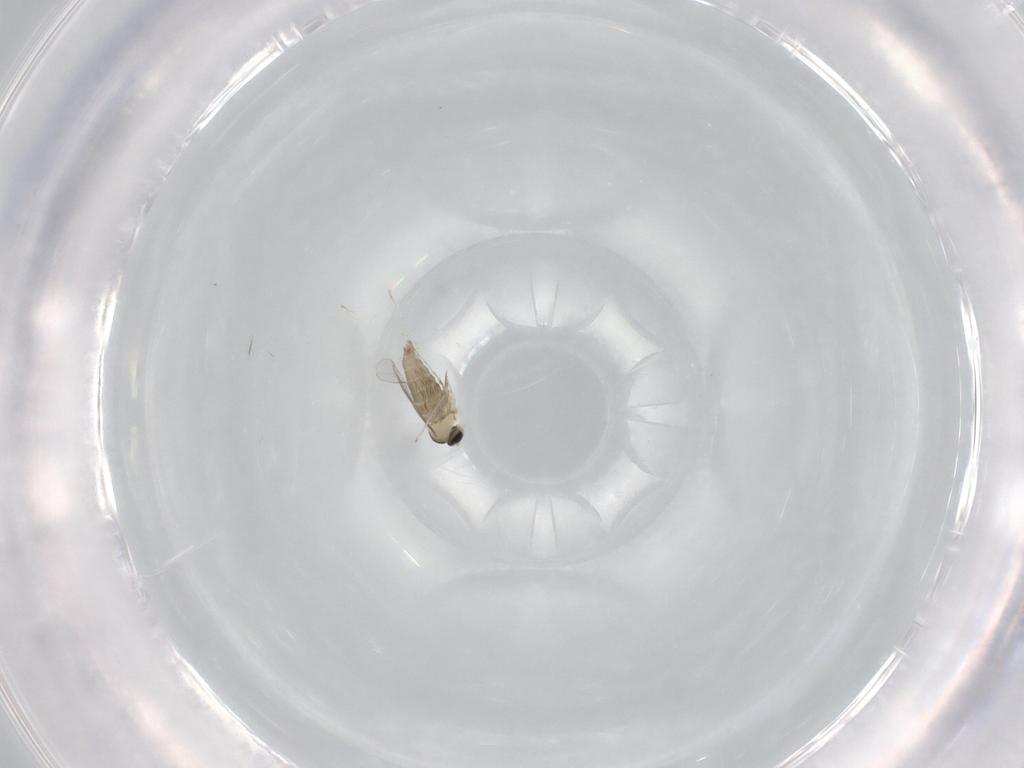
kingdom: Animalia
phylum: Arthropoda
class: Insecta
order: Diptera
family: Cecidomyiidae
